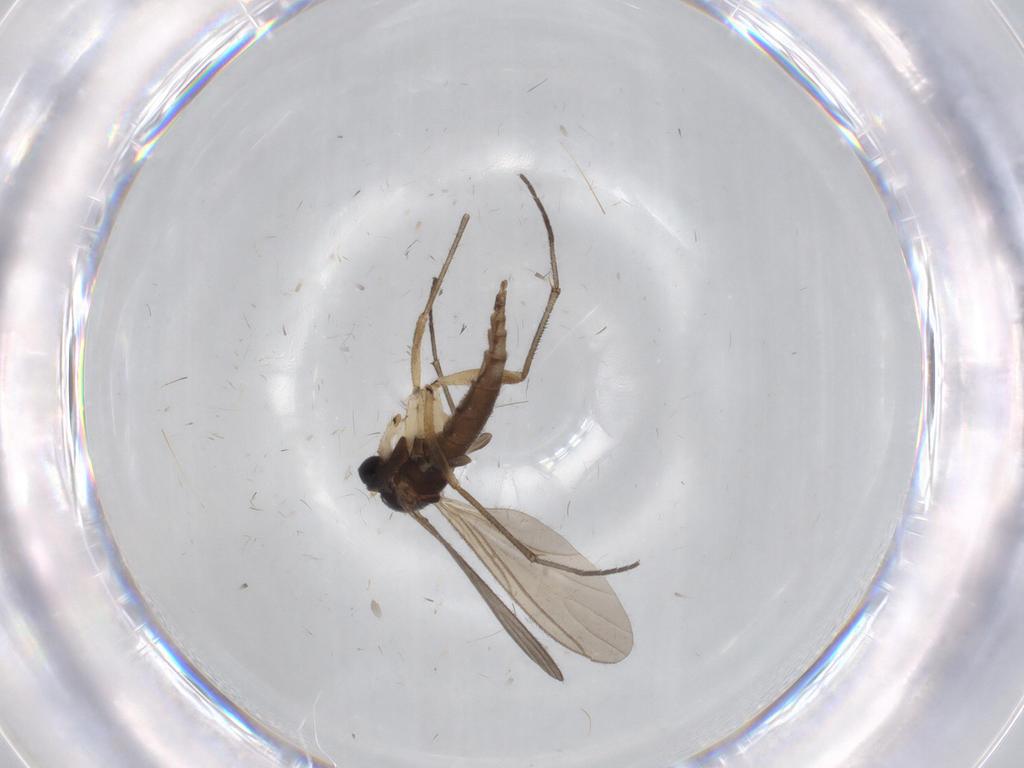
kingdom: Animalia
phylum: Arthropoda
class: Insecta
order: Diptera
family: Sciaridae
